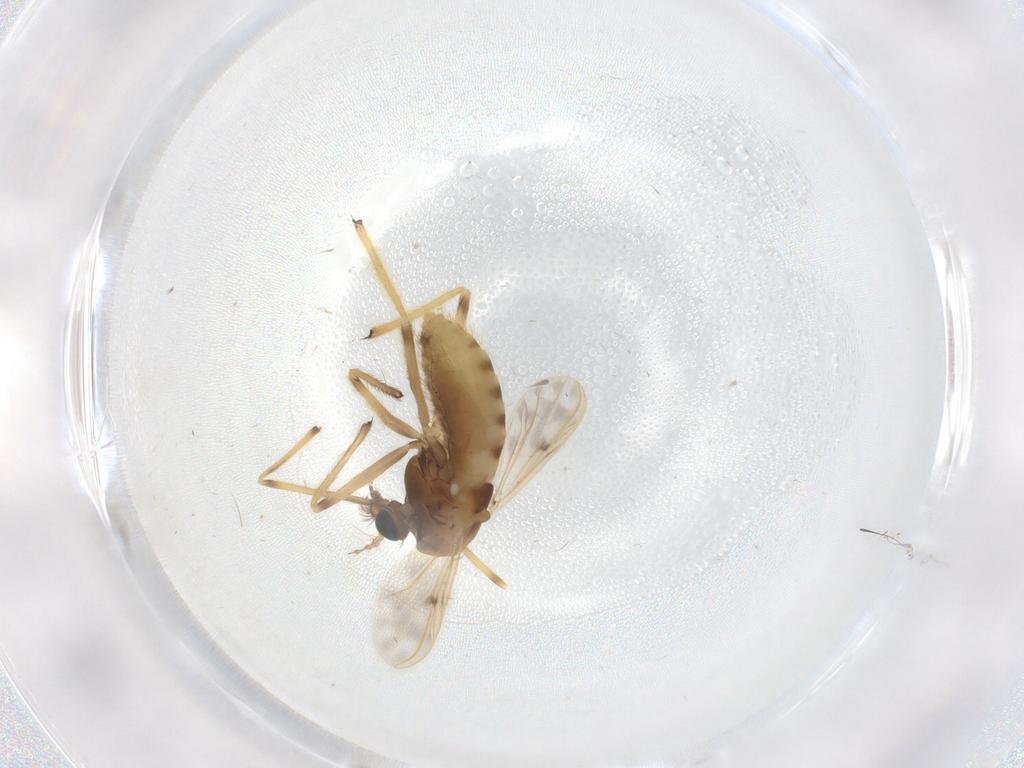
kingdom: Animalia
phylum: Arthropoda
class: Insecta
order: Diptera
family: Chironomidae
